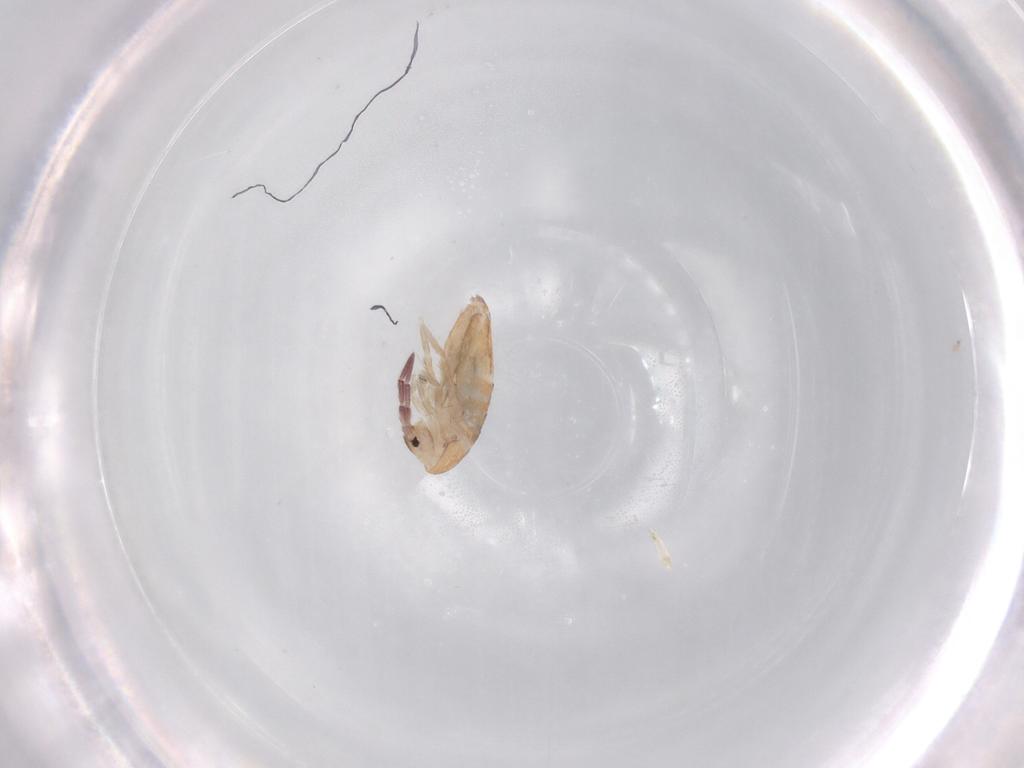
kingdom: Animalia
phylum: Arthropoda
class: Collembola
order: Entomobryomorpha
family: Entomobryidae
